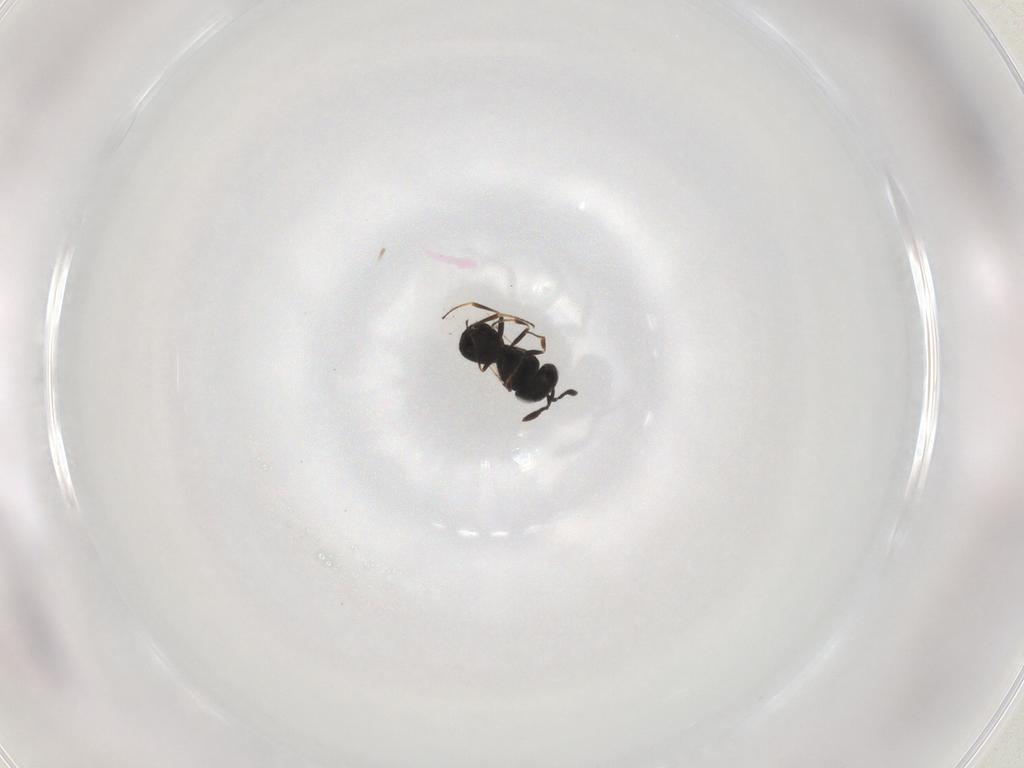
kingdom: Animalia
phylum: Arthropoda
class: Insecta
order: Hymenoptera
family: Scelionidae
